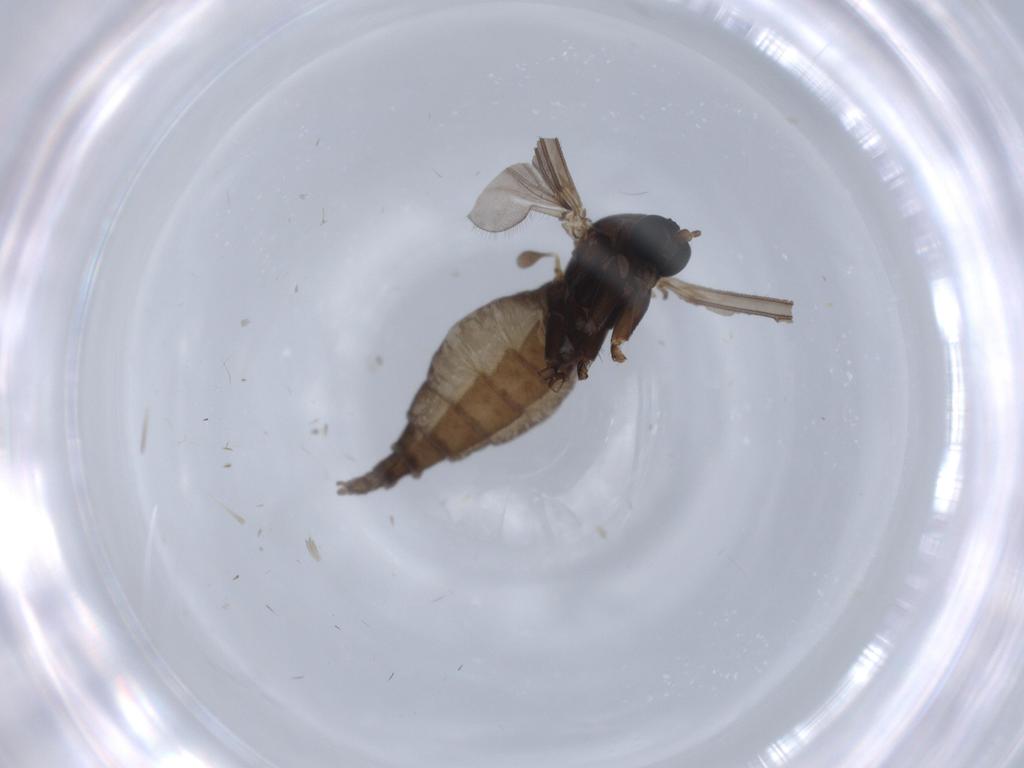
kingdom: Animalia
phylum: Arthropoda
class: Insecta
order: Diptera
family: Sciaridae
